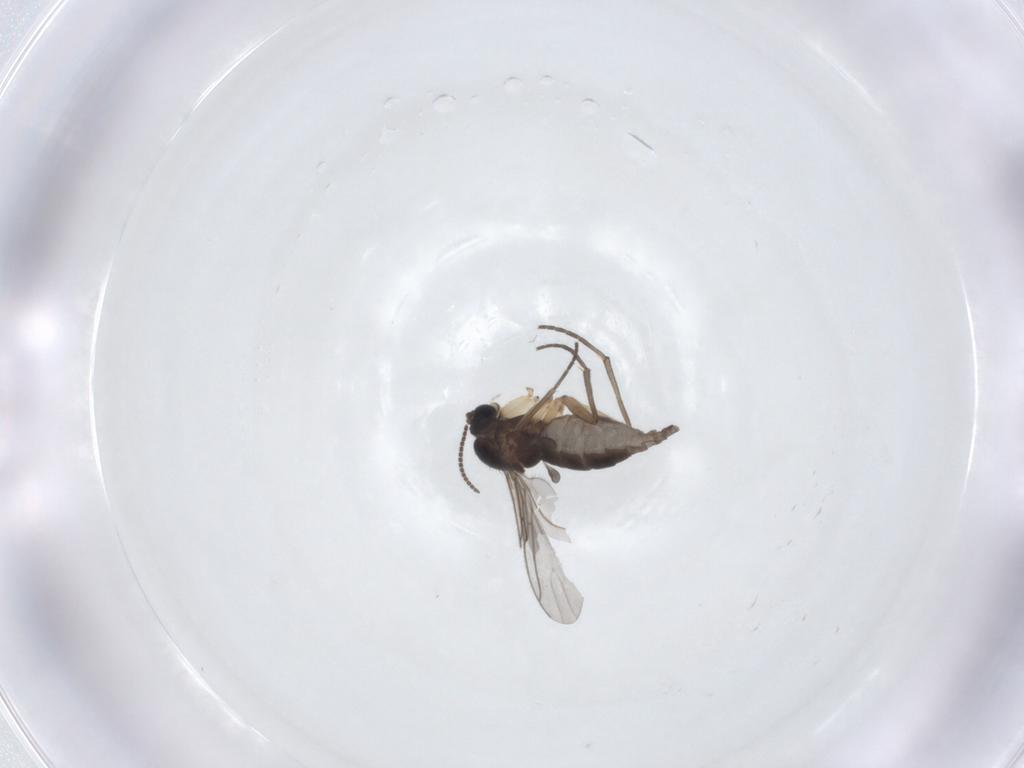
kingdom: Animalia
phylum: Arthropoda
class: Insecta
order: Diptera
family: Sciaridae
